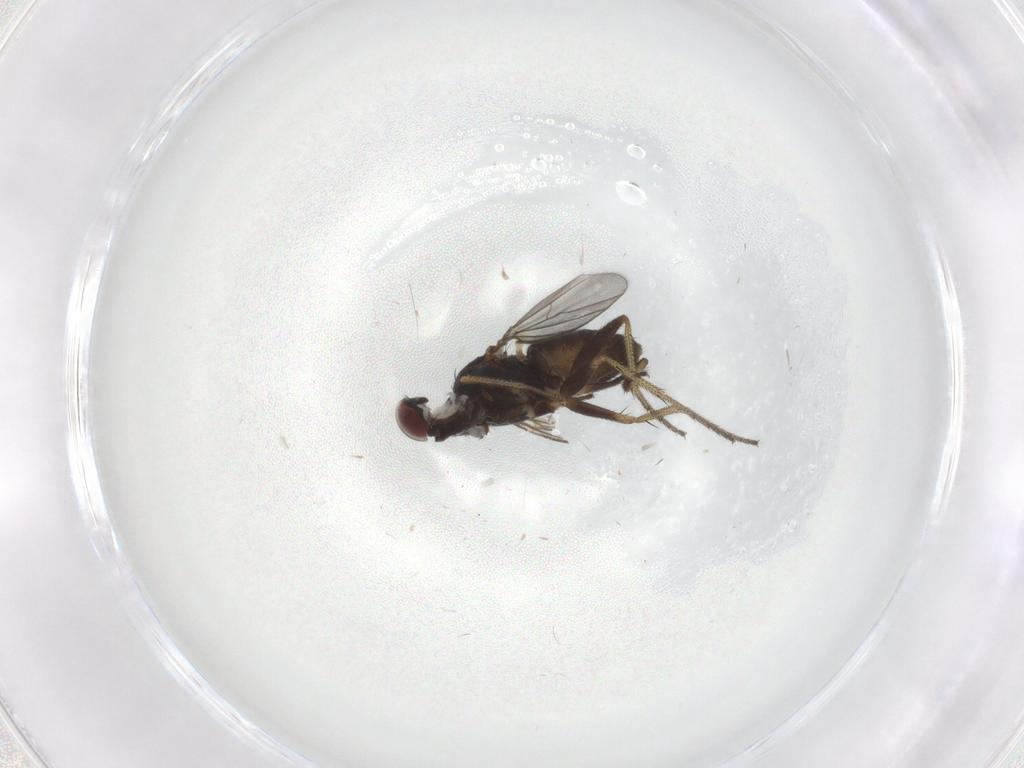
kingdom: Animalia
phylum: Arthropoda
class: Insecta
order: Diptera
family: Dolichopodidae
